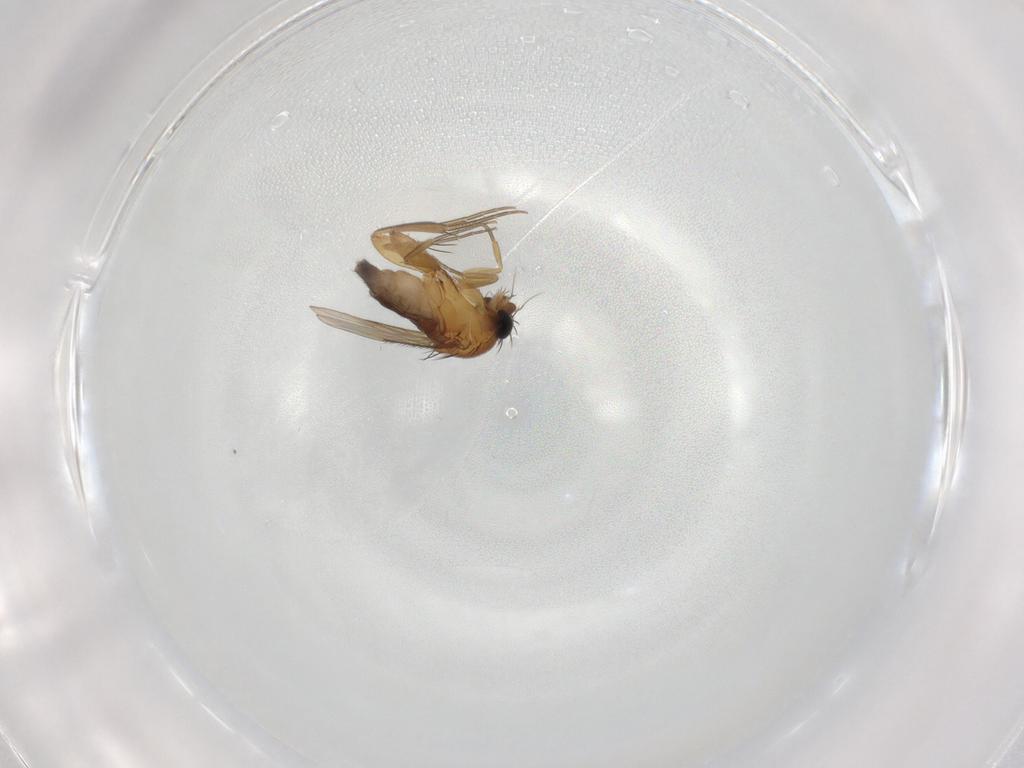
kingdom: Animalia
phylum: Arthropoda
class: Insecta
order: Diptera
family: Phoridae
